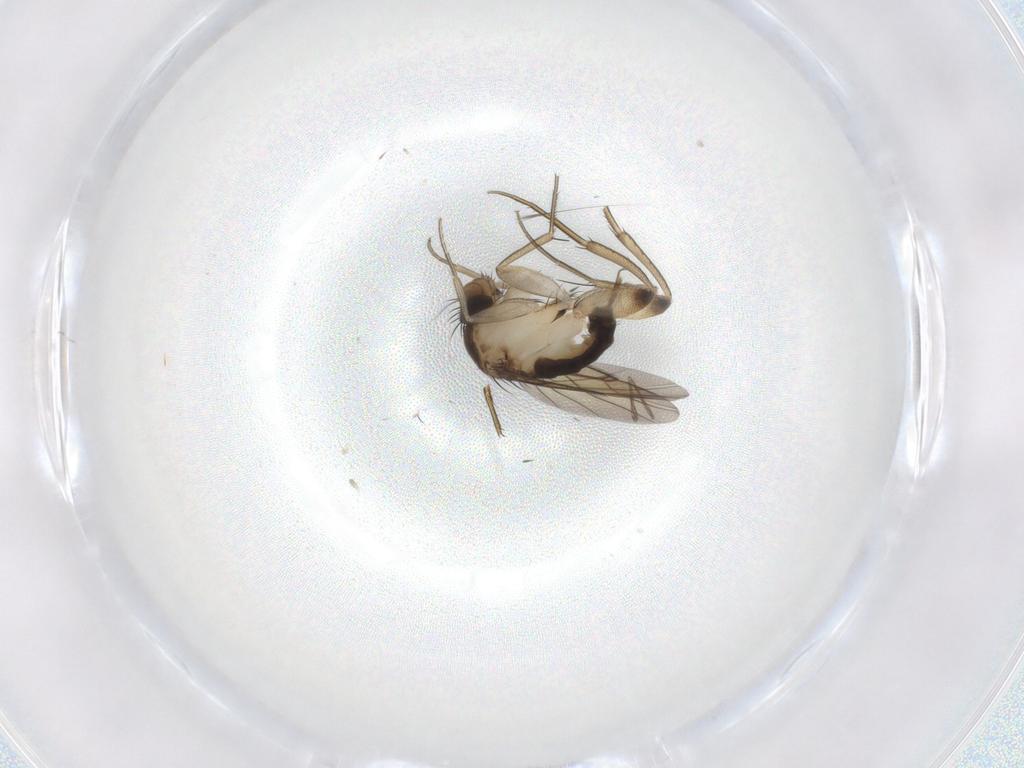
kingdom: Animalia
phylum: Arthropoda
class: Insecta
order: Diptera
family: Phoridae
